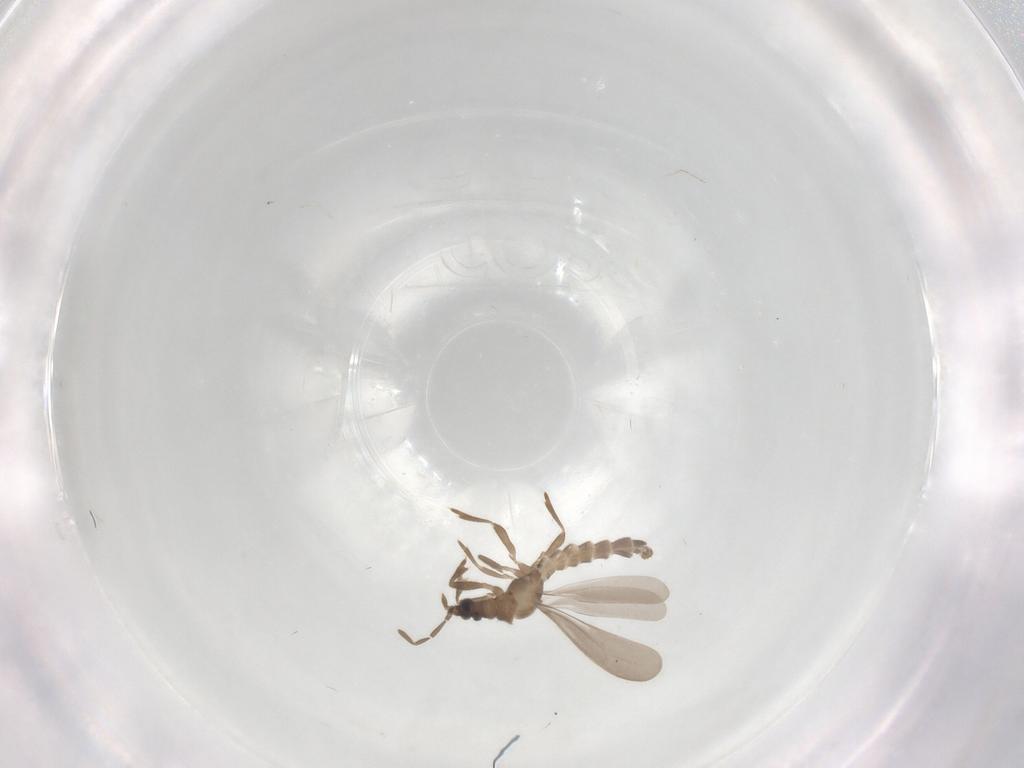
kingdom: Animalia
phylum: Arthropoda
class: Insecta
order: Hemiptera
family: Enicocephalidae
